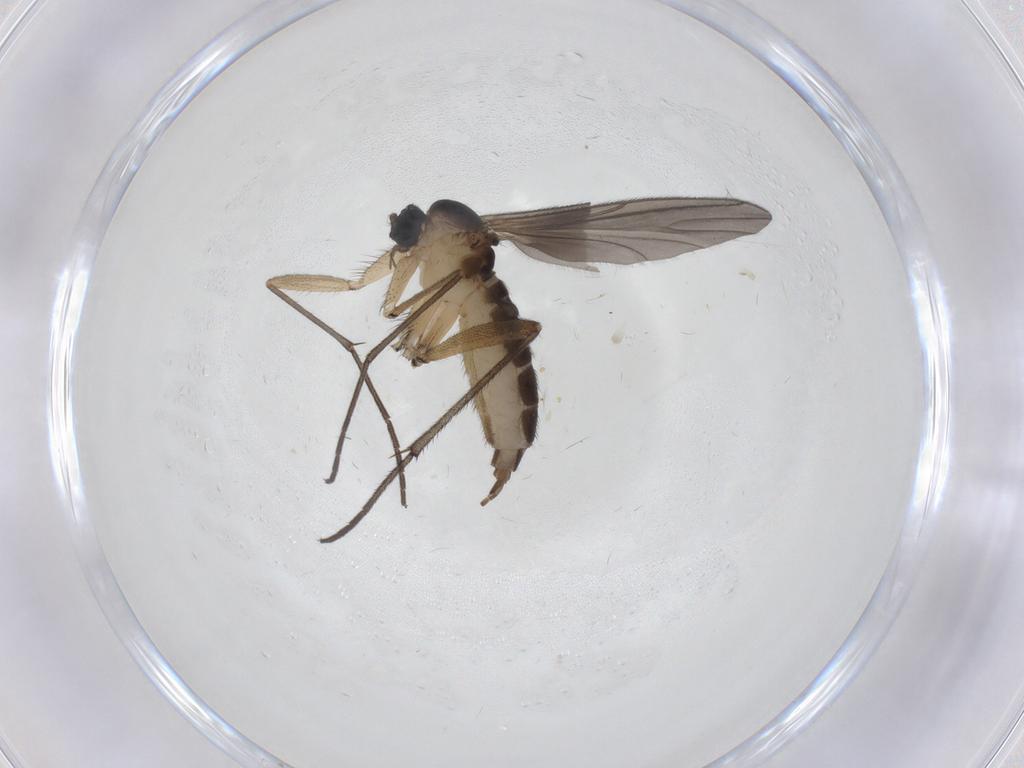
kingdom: Animalia
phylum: Arthropoda
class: Insecta
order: Diptera
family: Sciaridae
